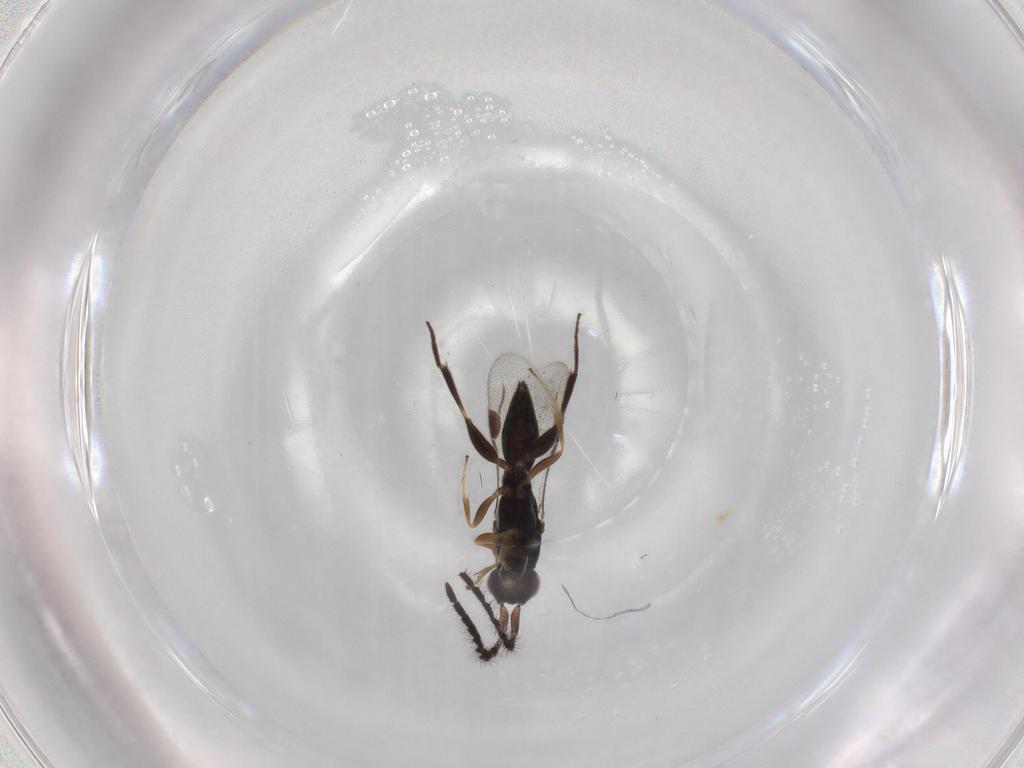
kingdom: Animalia
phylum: Arthropoda
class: Insecta
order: Hymenoptera
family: Megaspilidae
